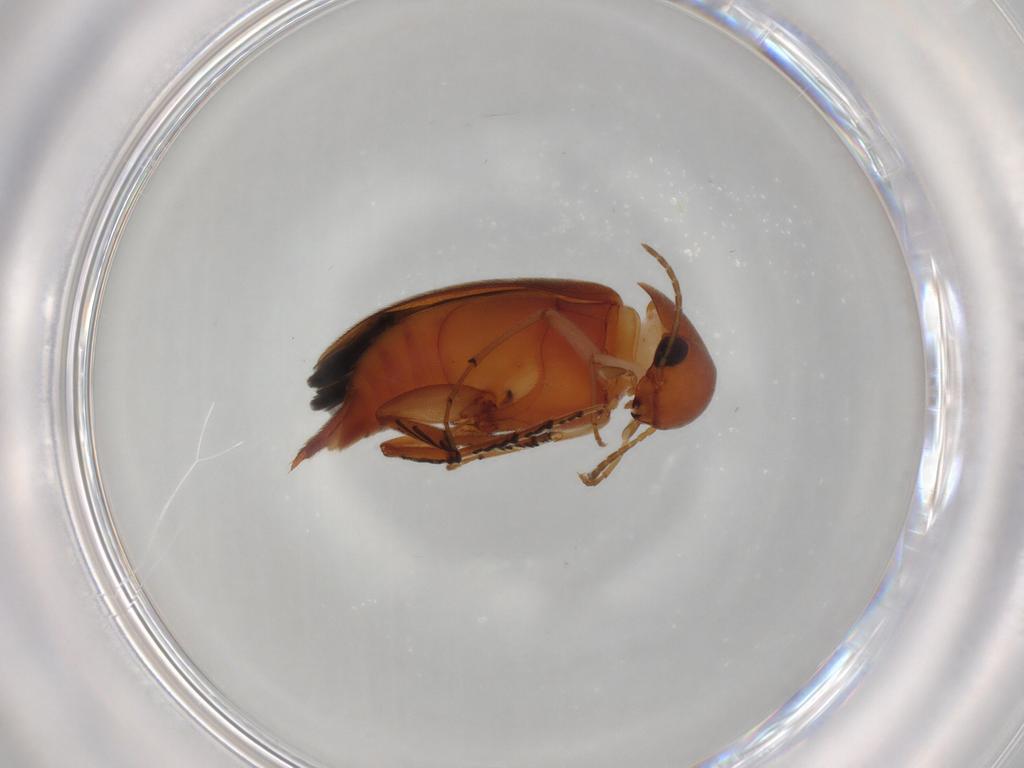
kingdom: Animalia
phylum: Arthropoda
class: Insecta
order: Coleoptera
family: Mordellidae
